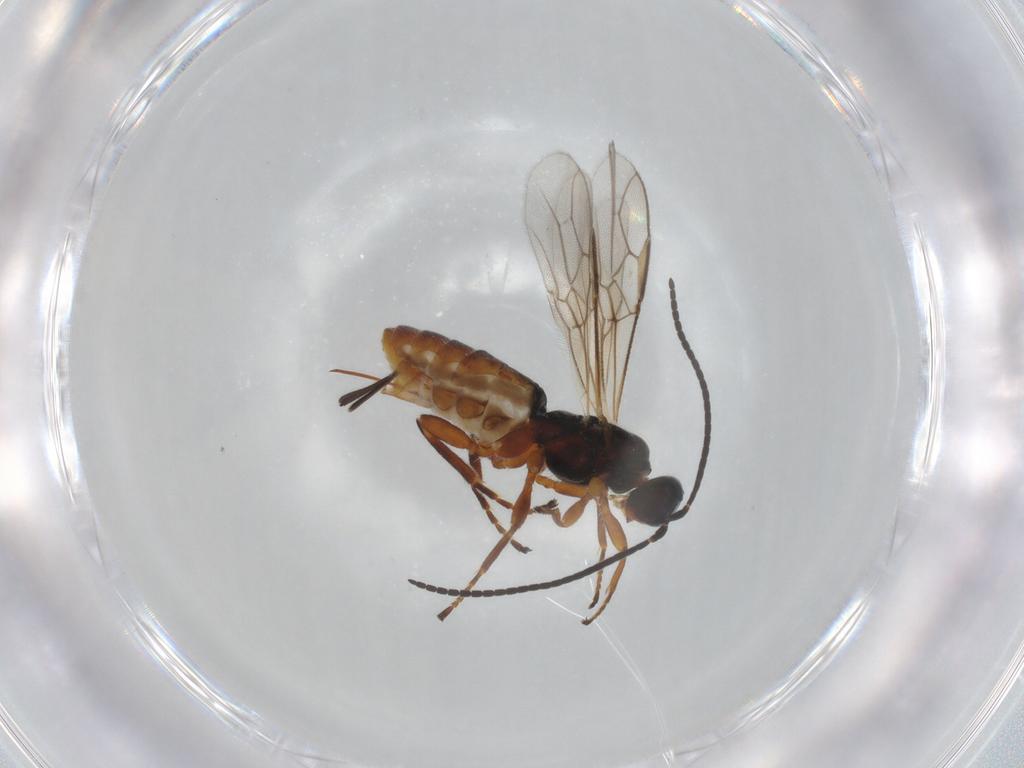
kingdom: Animalia
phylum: Arthropoda
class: Insecta
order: Hymenoptera
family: Braconidae
